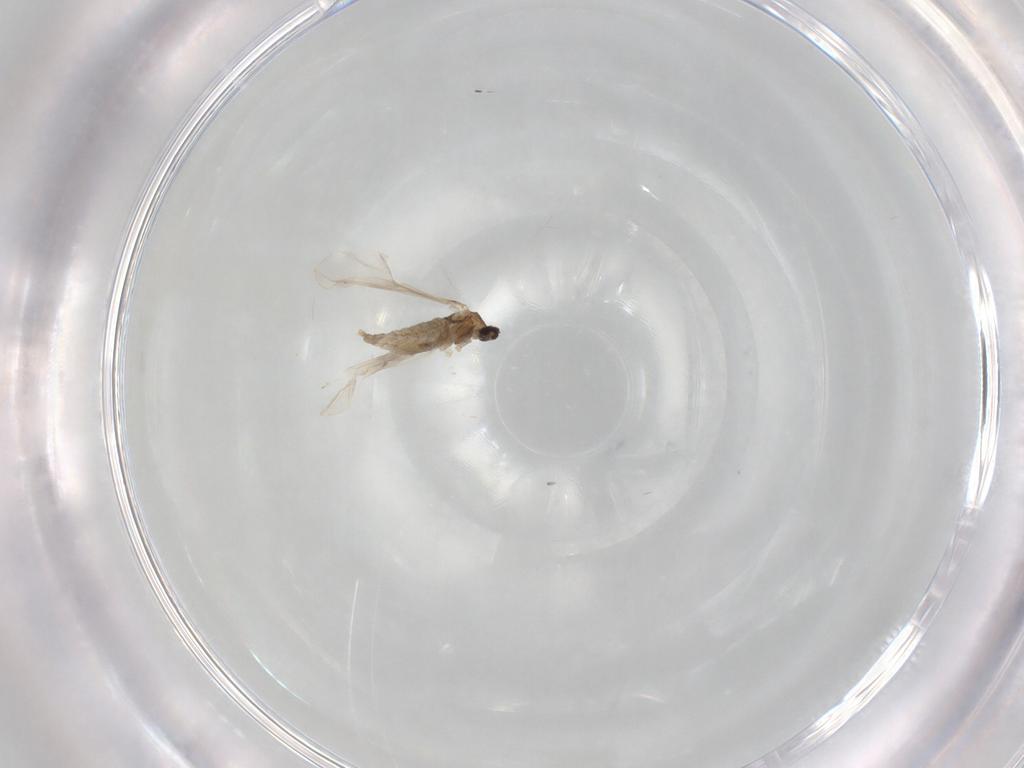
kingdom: Animalia
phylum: Arthropoda
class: Insecta
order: Diptera
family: Cecidomyiidae
